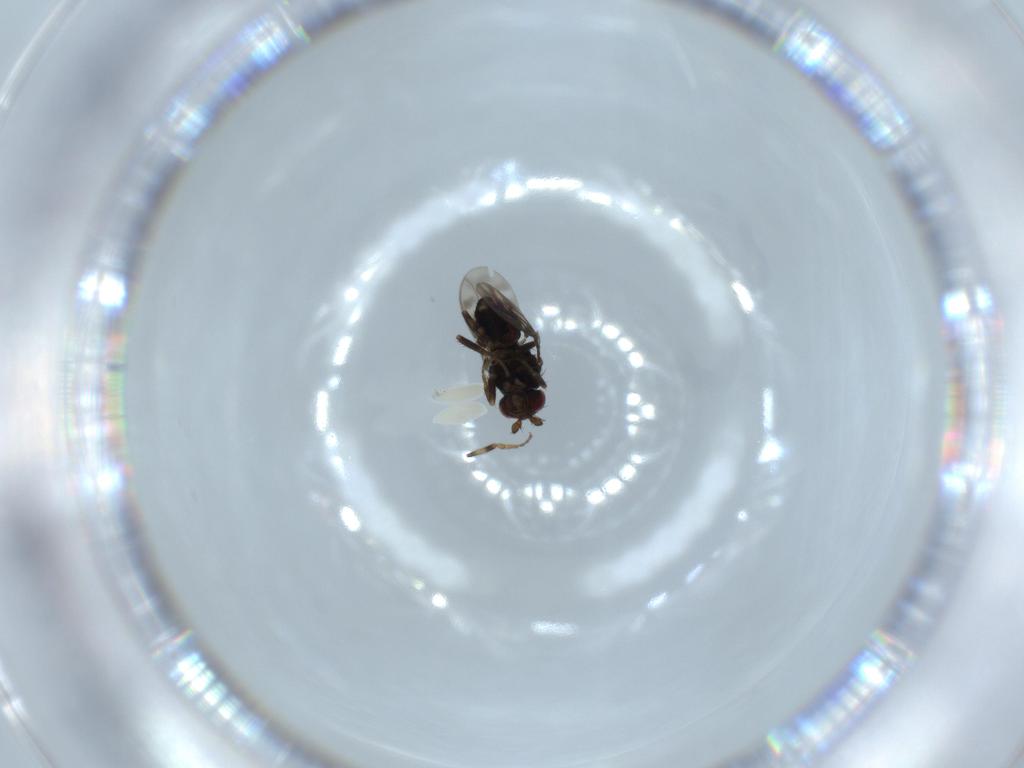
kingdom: Animalia
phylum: Arthropoda
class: Insecta
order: Diptera
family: Sphaeroceridae
